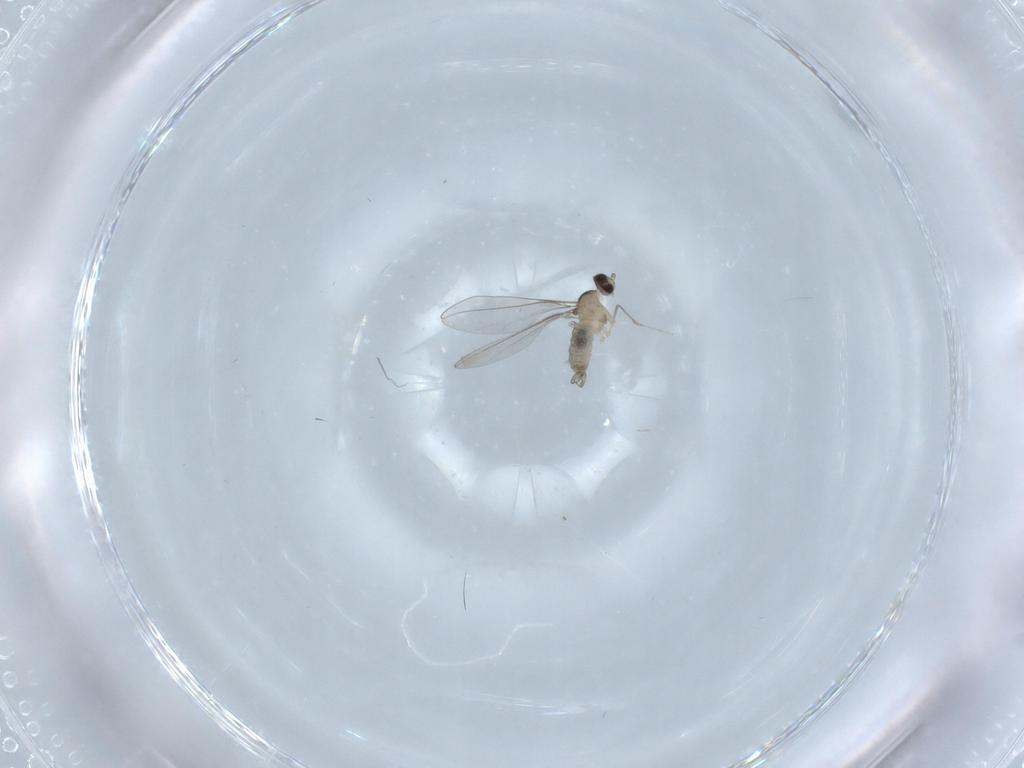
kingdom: Animalia
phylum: Arthropoda
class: Insecta
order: Diptera
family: Cecidomyiidae
